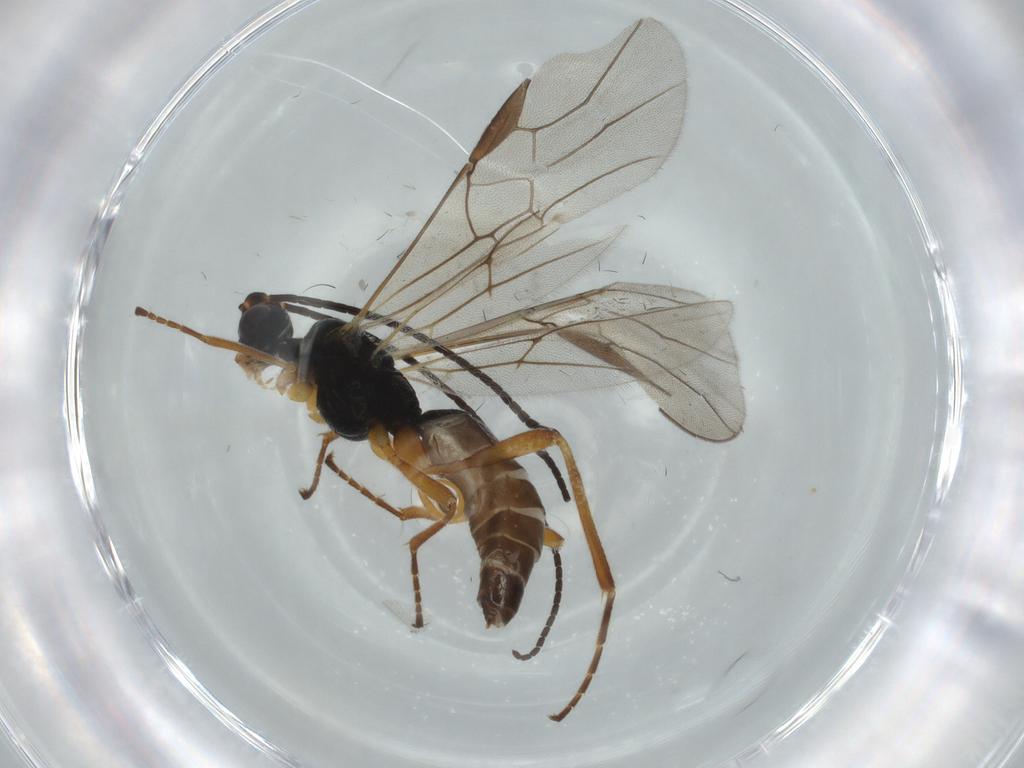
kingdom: Animalia
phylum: Arthropoda
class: Insecta
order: Hymenoptera
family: Braconidae
